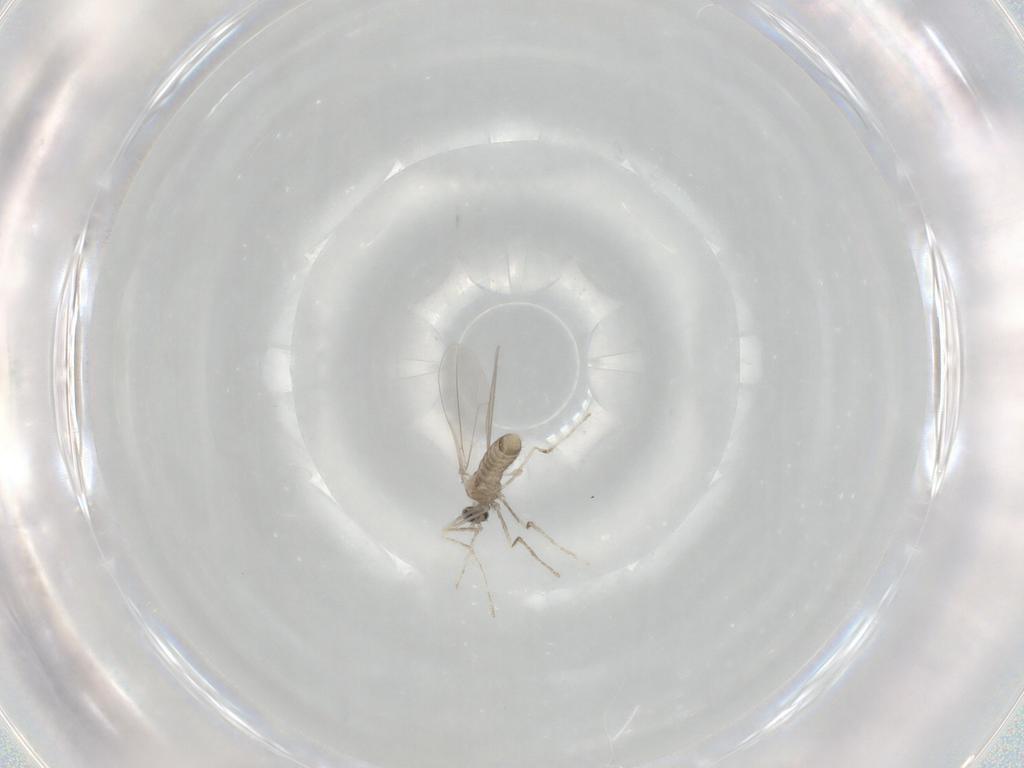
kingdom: Animalia
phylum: Arthropoda
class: Insecta
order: Diptera
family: Cecidomyiidae
